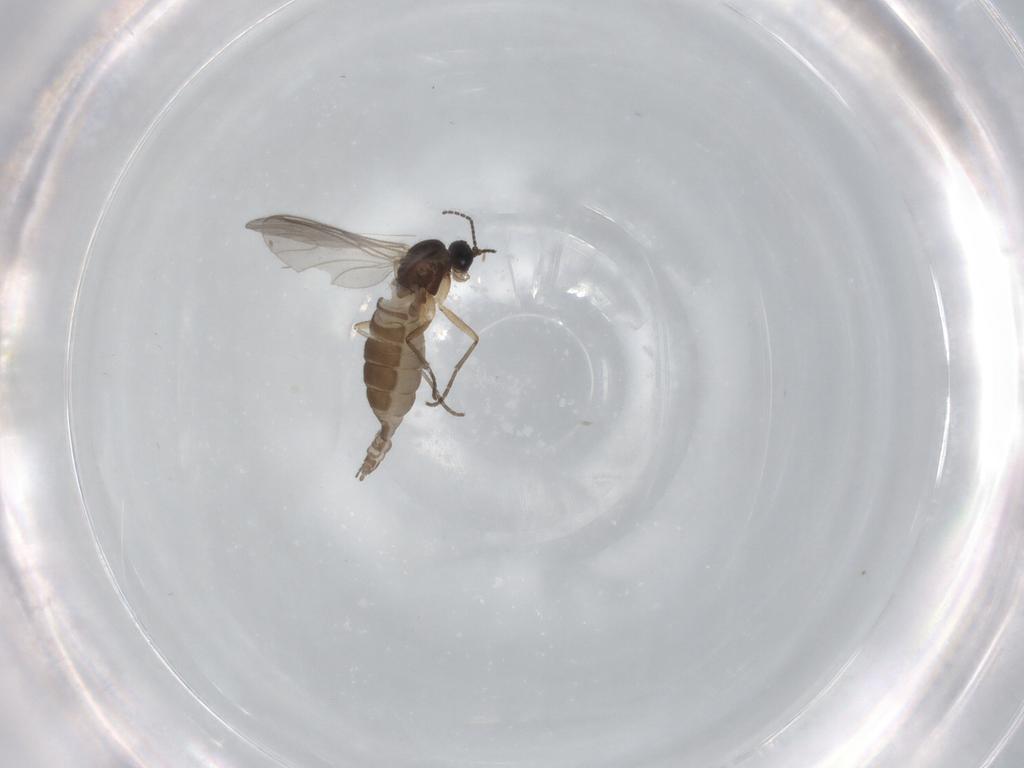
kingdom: Animalia
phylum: Arthropoda
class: Insecta
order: Diptera
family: Sciaridae
